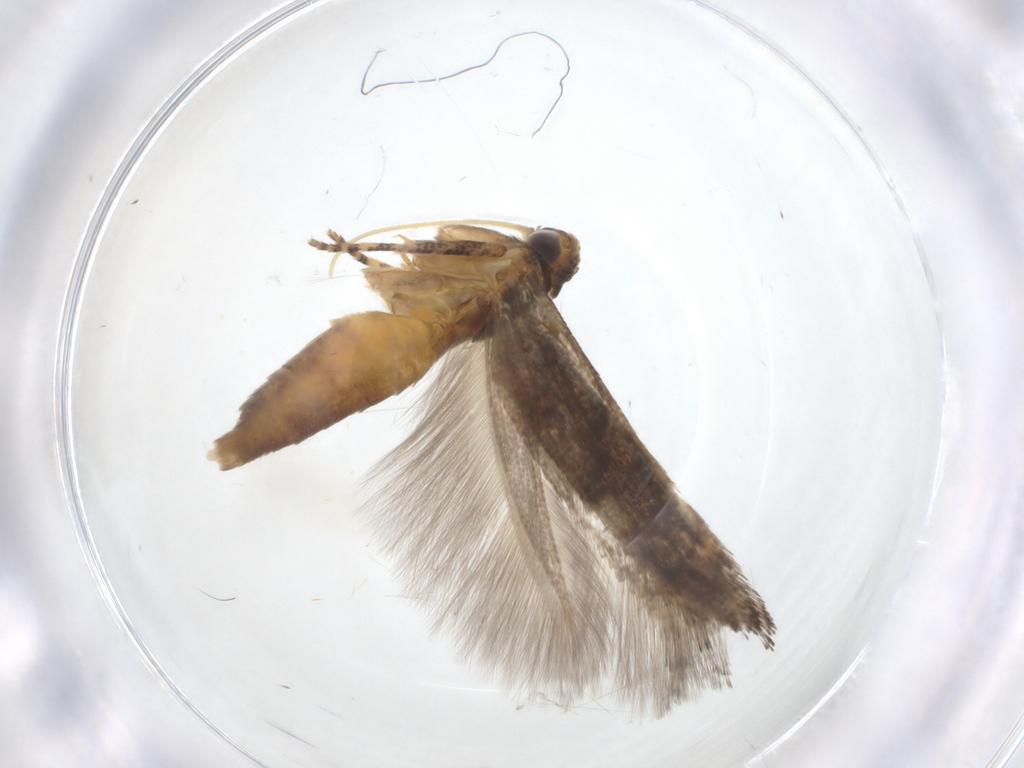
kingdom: Animalia
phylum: Arthropoda
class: Insecta
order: Lepidoptera
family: Gelechiidae
